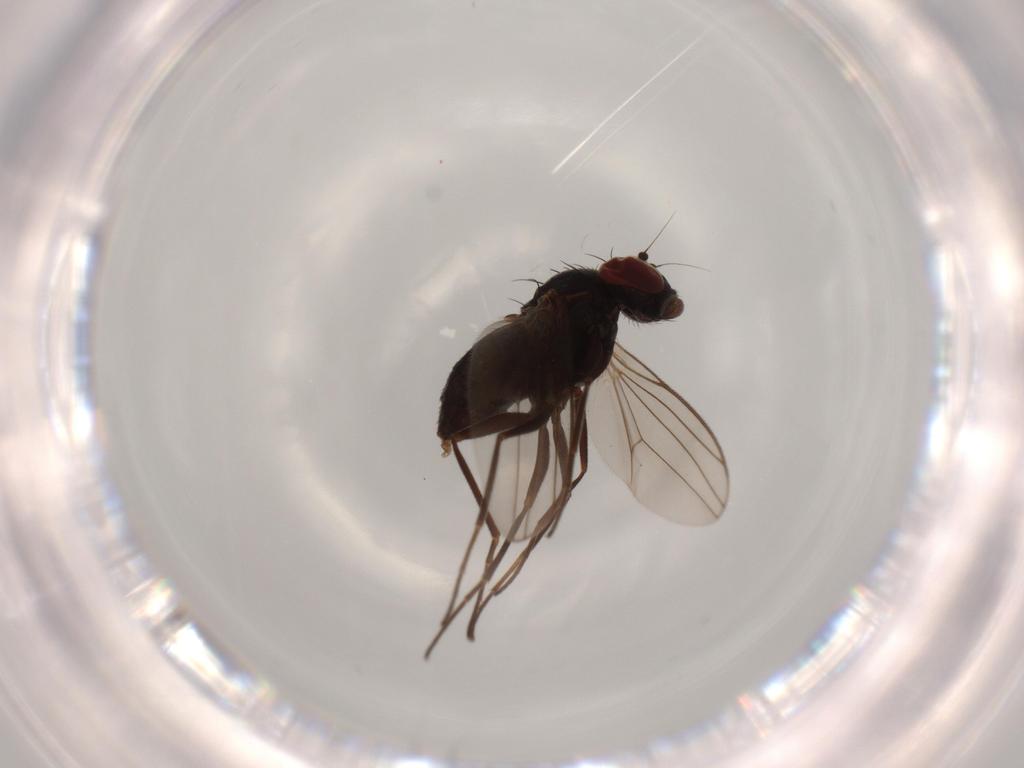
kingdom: Animalia
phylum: Arthropoda
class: Insecta
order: Diptera
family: Dolichopodidae
